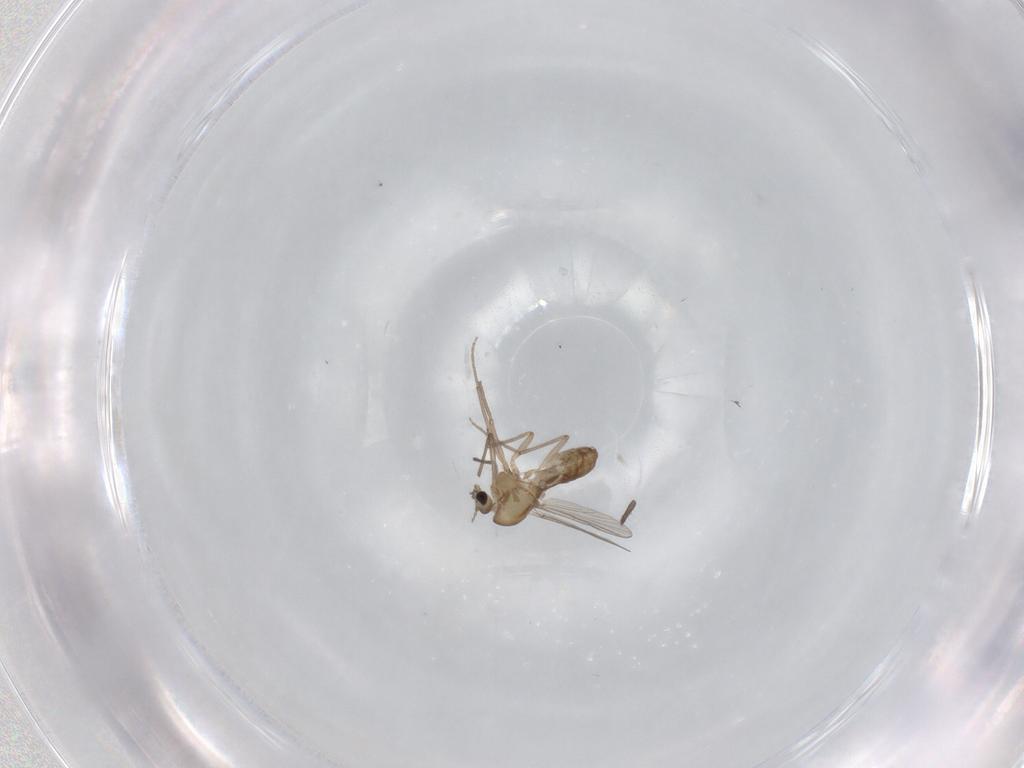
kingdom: Animalia
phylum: Arthropoda
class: Insecta
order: Diptera
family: Chironomidae
